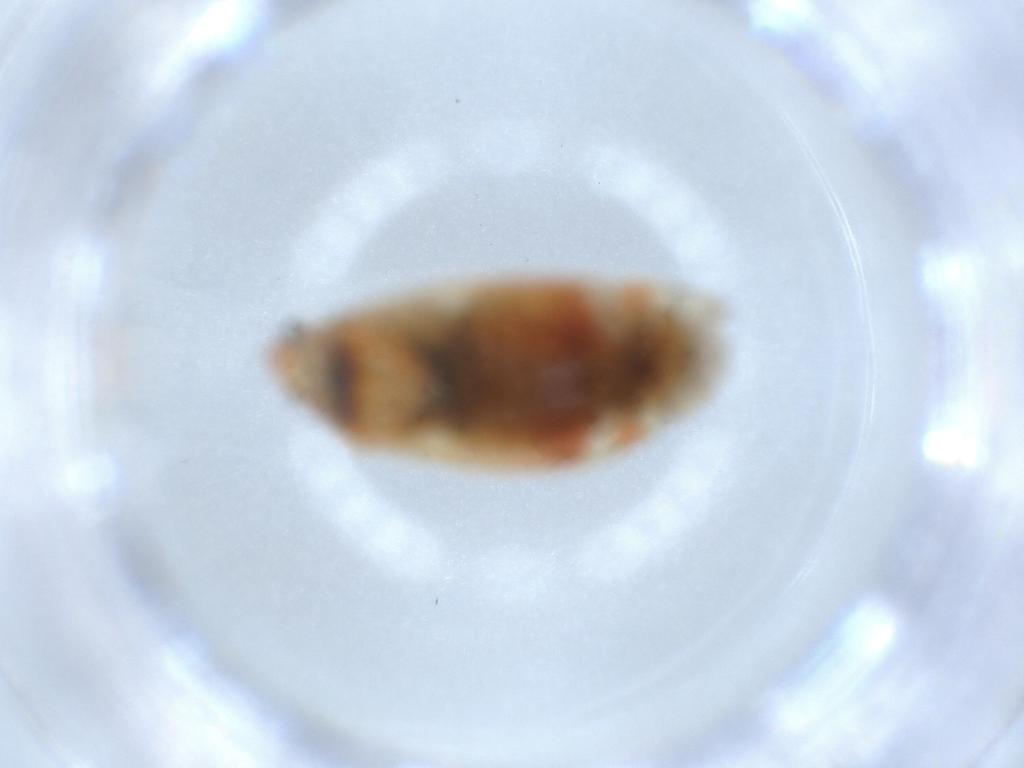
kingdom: Animalia
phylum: Arthropoda
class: Insecta
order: Hemiptera
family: Miridae
